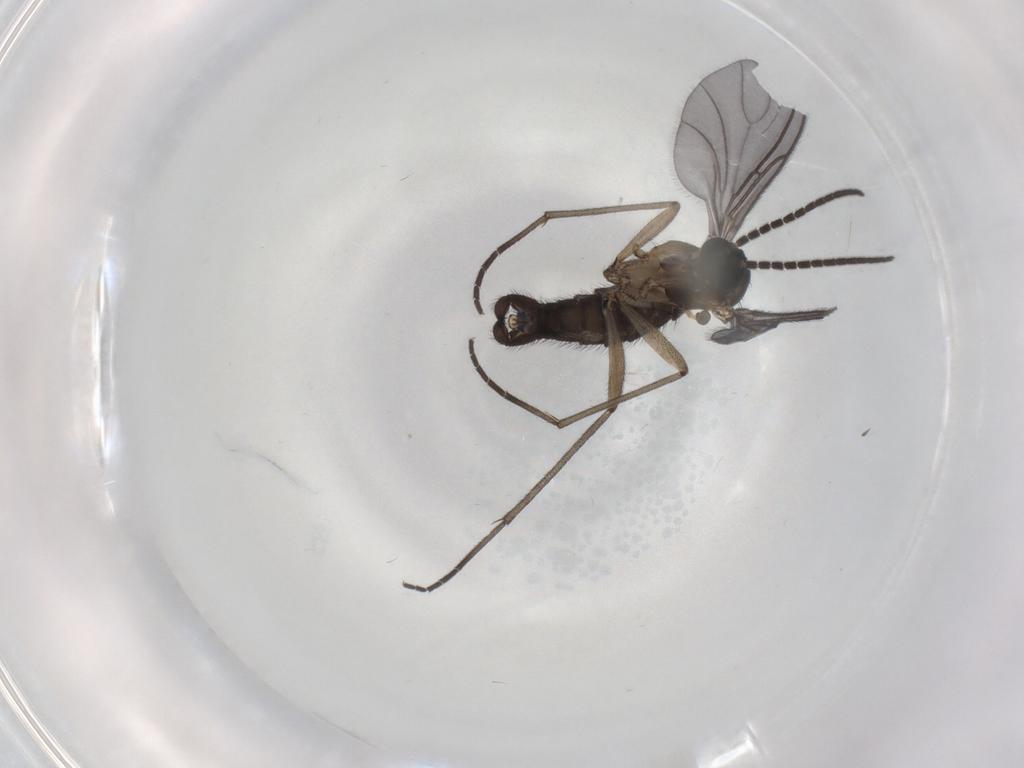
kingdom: Animalia
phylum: Arthropoda
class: Insecta
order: Diptera
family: Sciaridae
